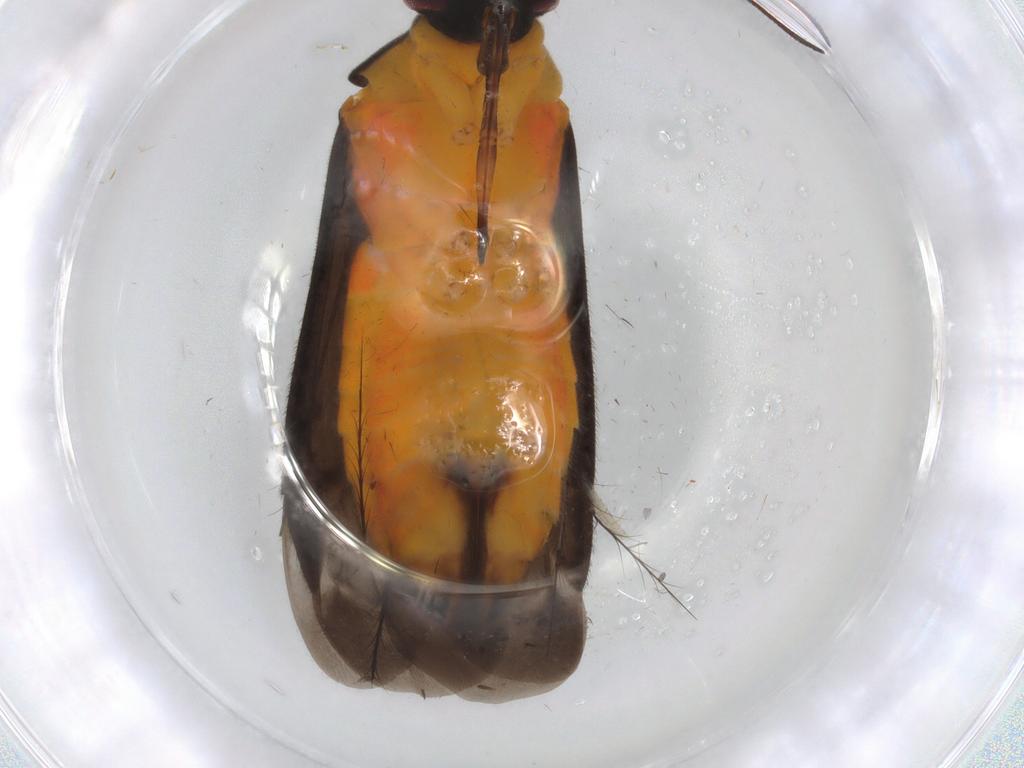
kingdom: Animalia
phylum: Arthropoda
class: Insecta
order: Hemiptera
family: Miridae
